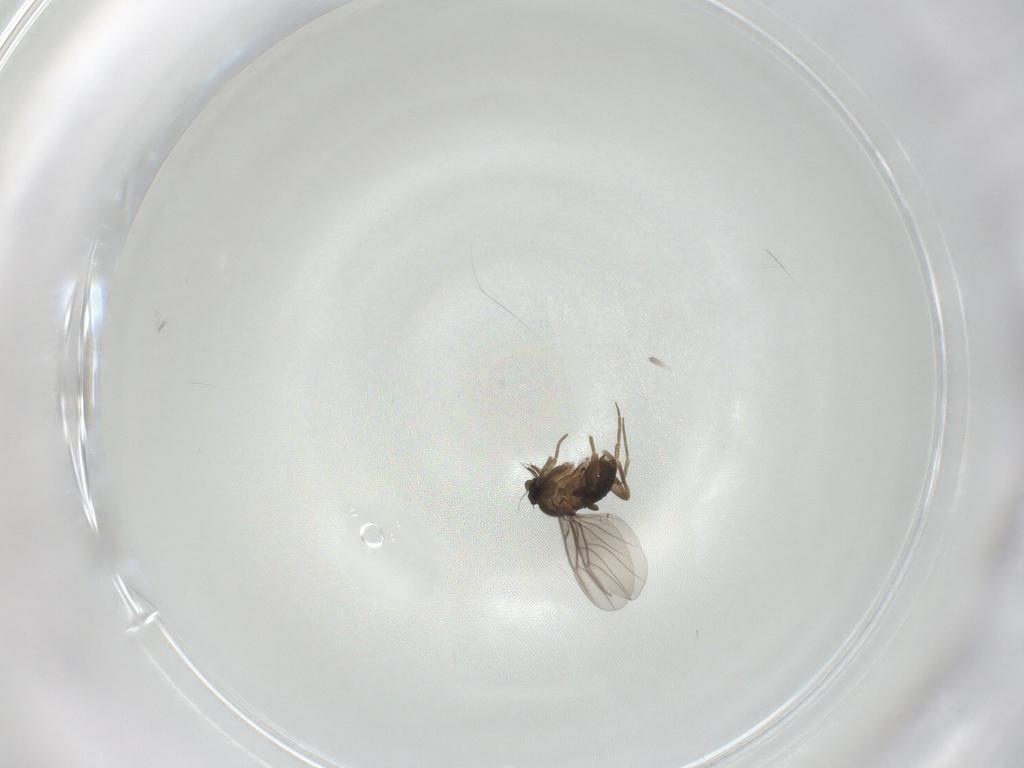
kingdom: Animalia
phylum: Arthropoda
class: Insecta
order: Diptera
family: Phoridae
